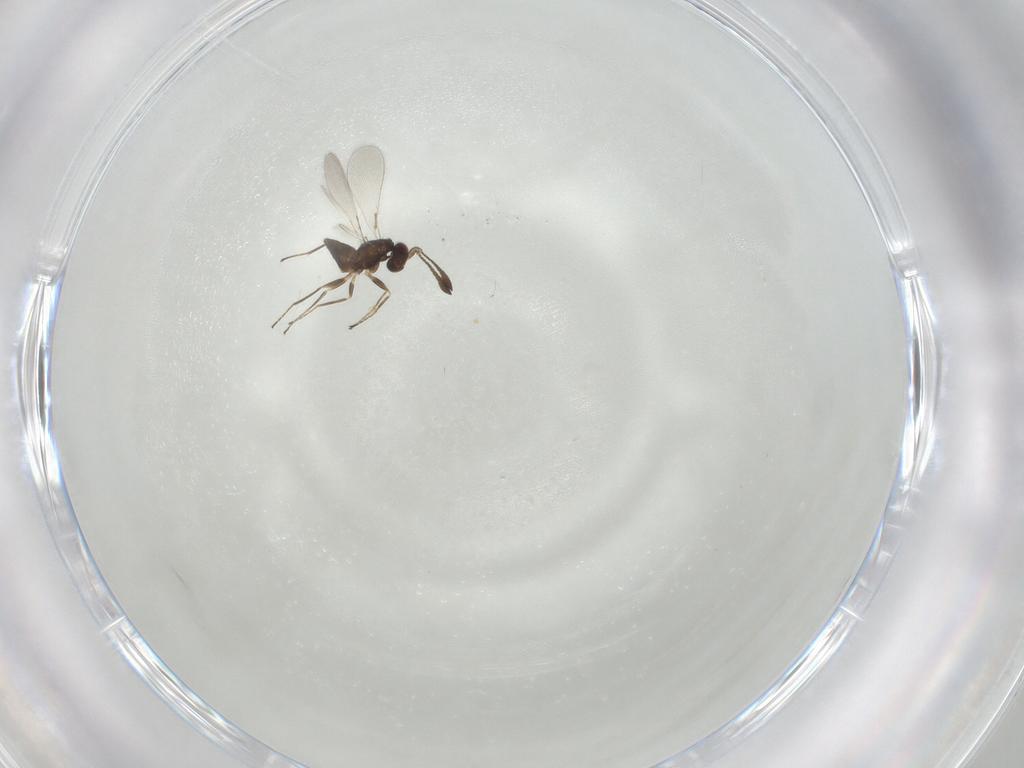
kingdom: Animalia
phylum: Arthropoda
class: Insecta
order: Hymenoptera
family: Mymaridae
